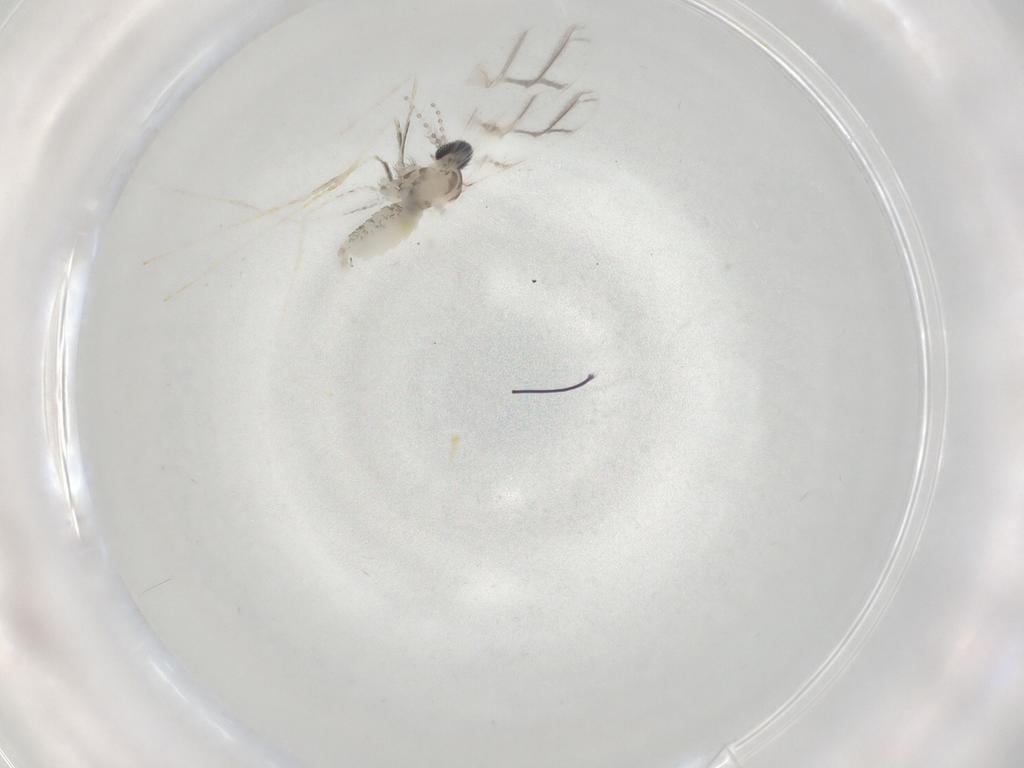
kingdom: Animalia
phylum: Arthropoda
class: Insecta
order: Diptera
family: Cecidomyiidae
